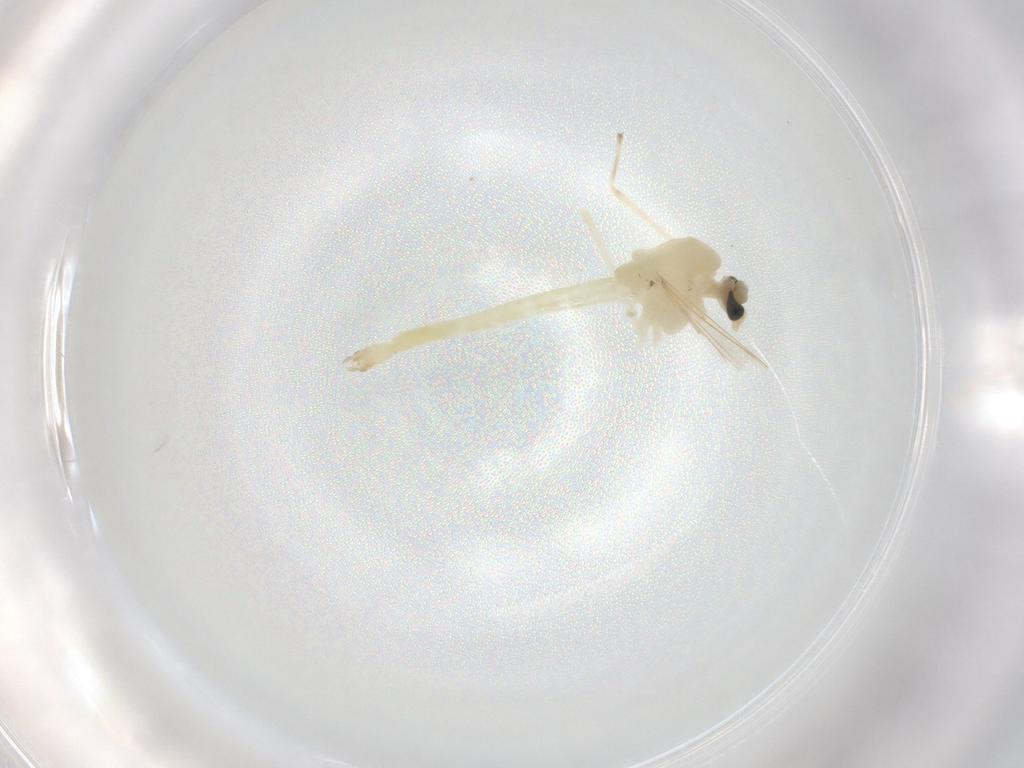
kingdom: Animalia
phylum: Arthropoda
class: Insecta
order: Diptera
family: Chironomidae
